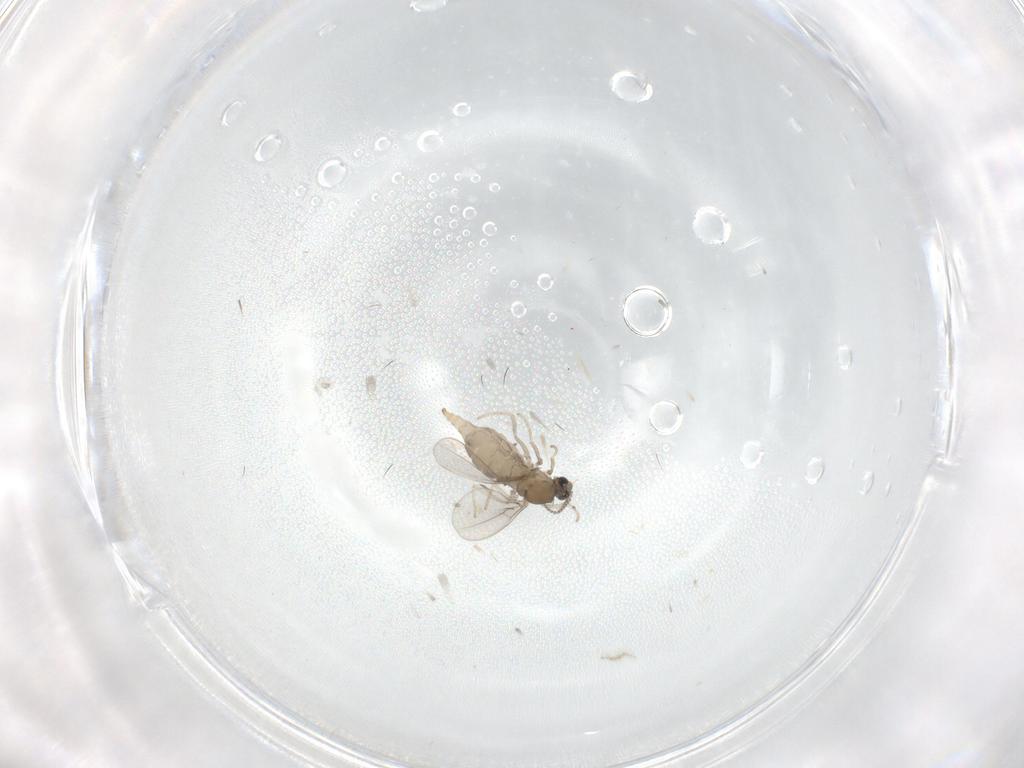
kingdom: Animalia
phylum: Arthropoda
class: Insecta
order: Diptera
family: Cecidomyiidae
